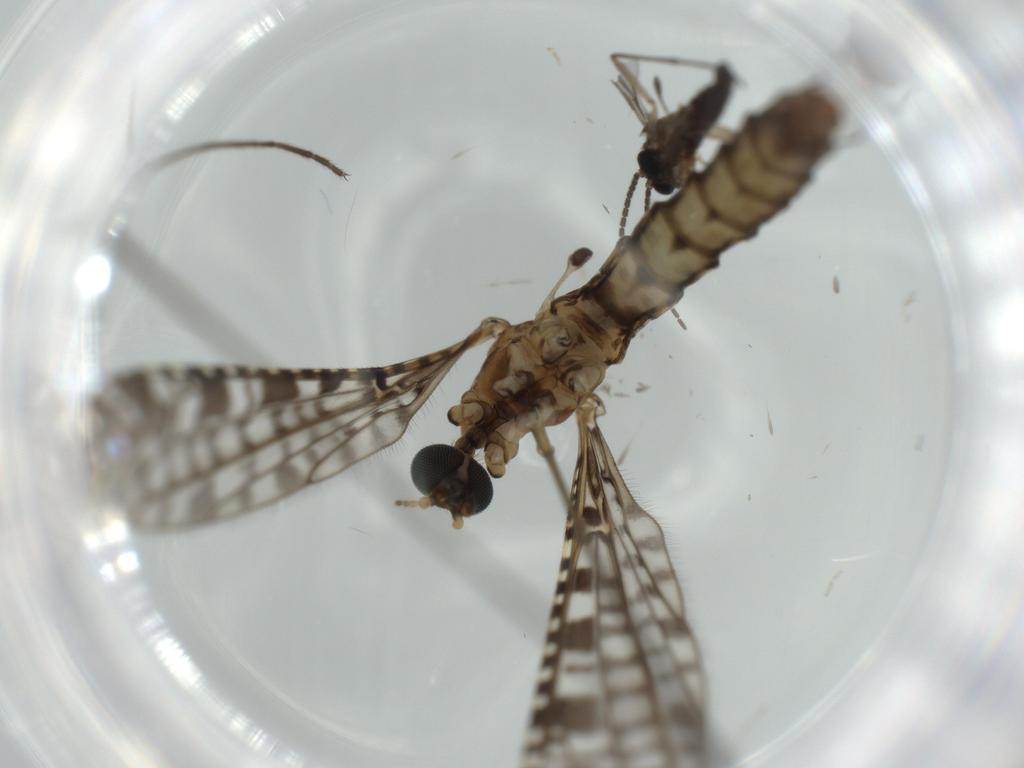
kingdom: Animalia
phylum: Arthropoda
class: Insecta
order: Diptera
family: Limoniidae
